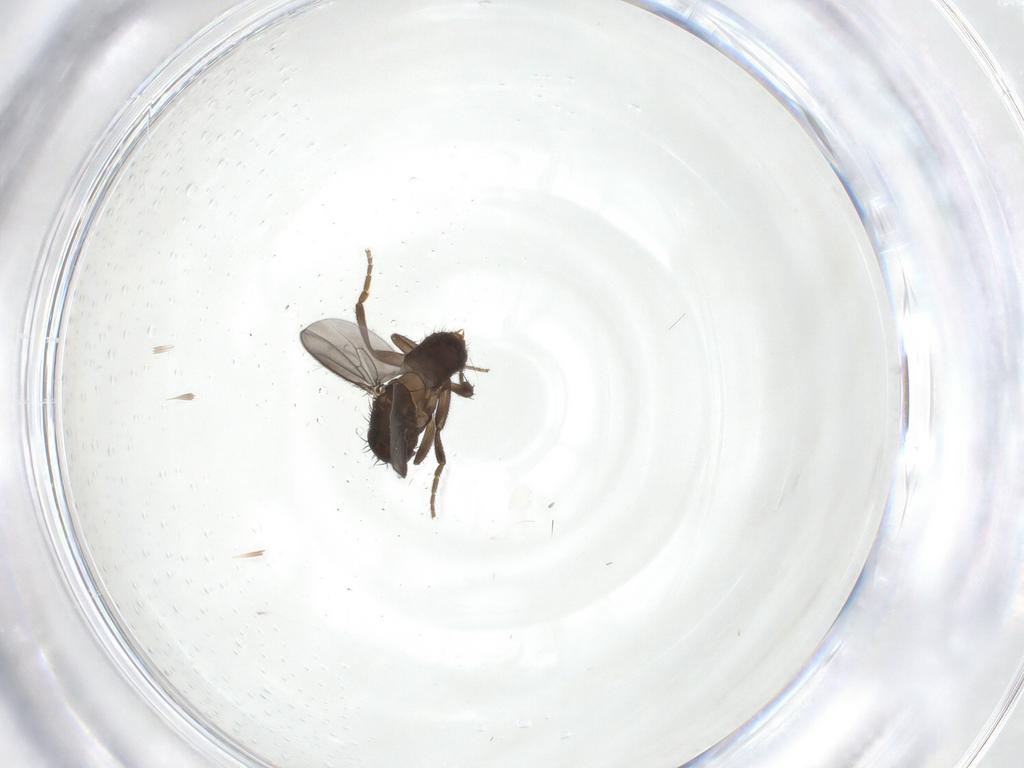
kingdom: Animalia
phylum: Arthropoda
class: Insecta
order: Diptera
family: Sphaeroceridae
